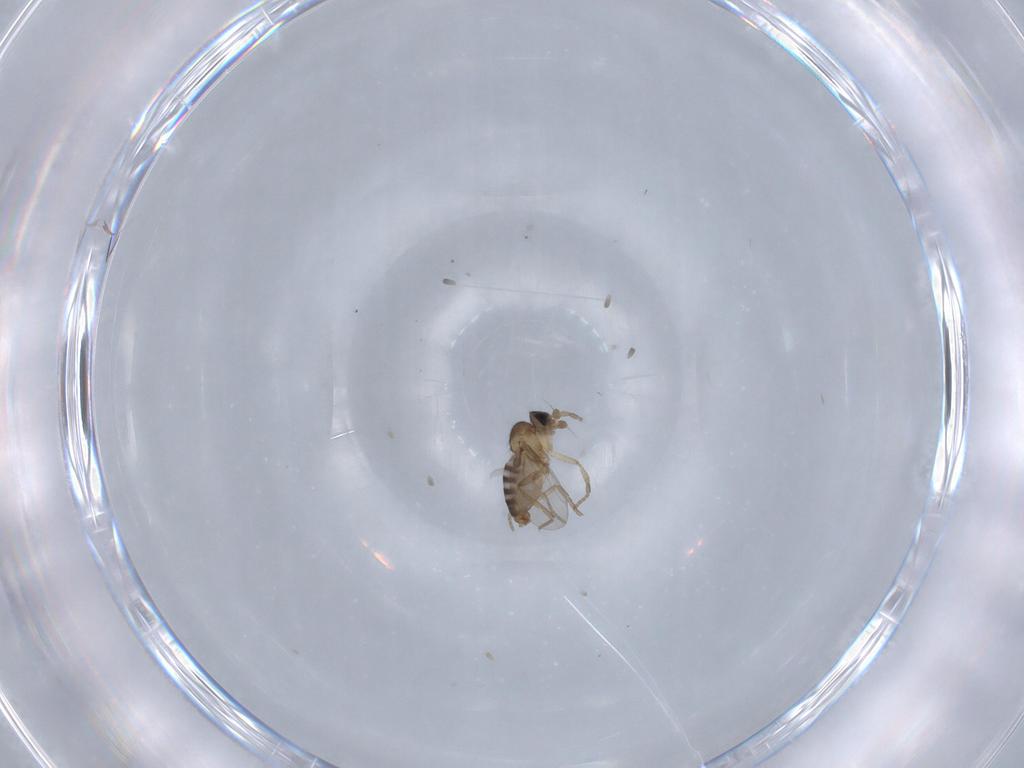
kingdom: Animalia
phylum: Arthropoda
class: Insecta
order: Diptera
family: Phoridae
